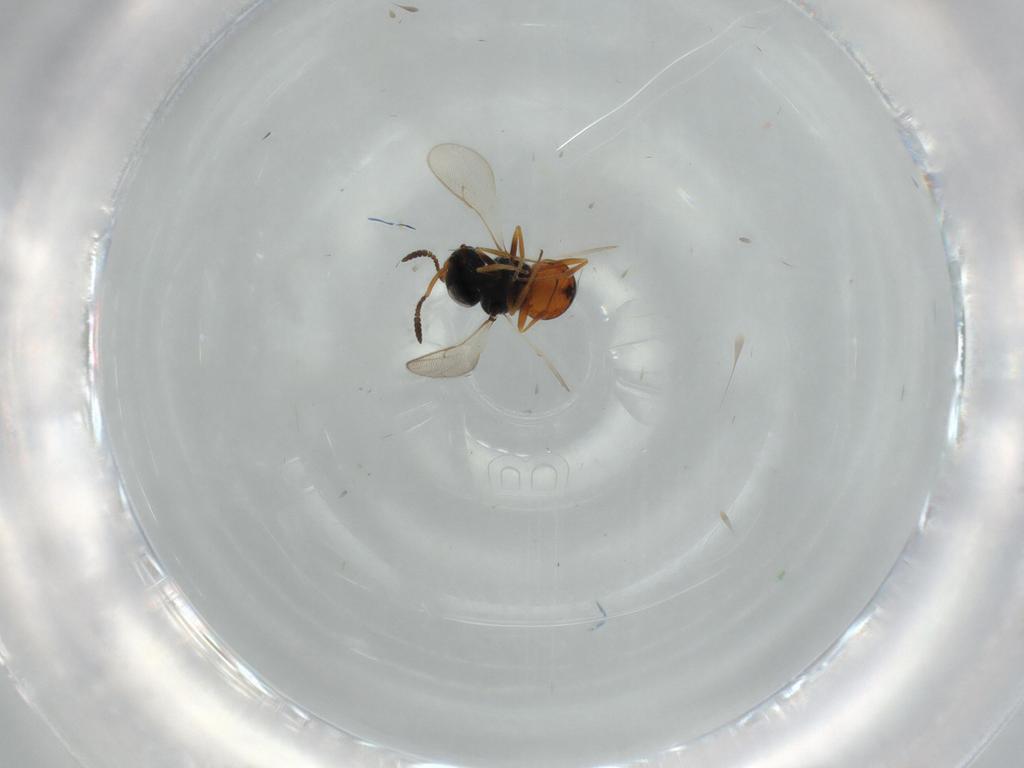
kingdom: Animalia
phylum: Arthropoda
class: Insecta
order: Hymenoptera
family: Scelionidae
